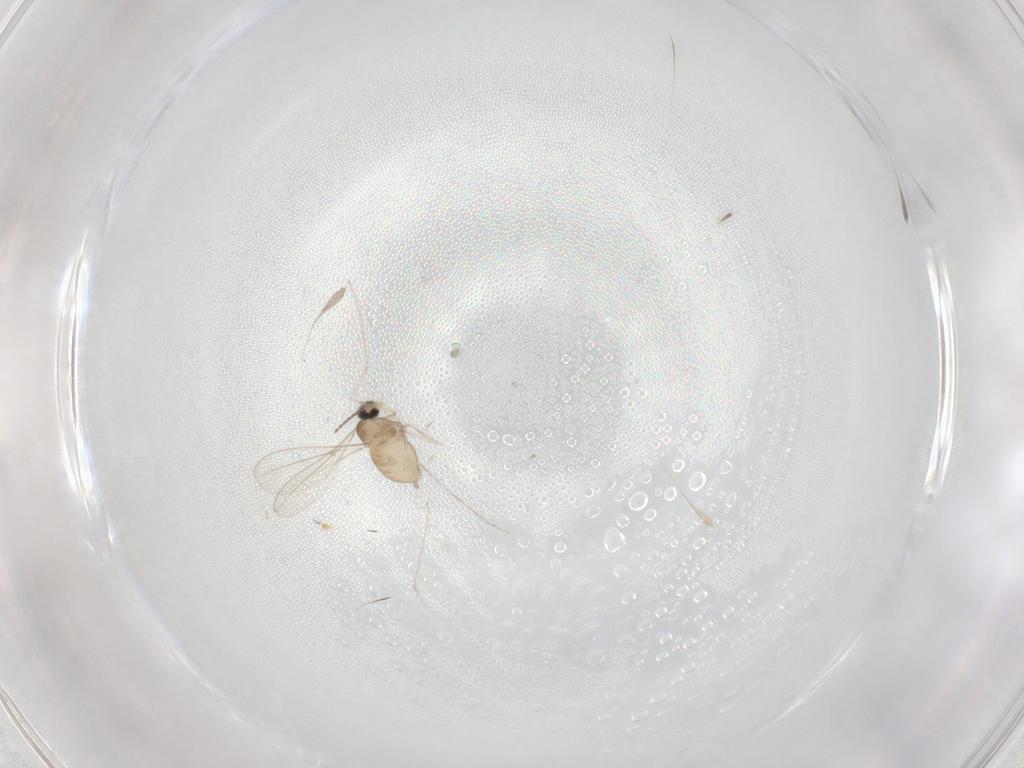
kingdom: Animalia
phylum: Arthropoda
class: Insecta
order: Diptera
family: Cecidomyiidae
